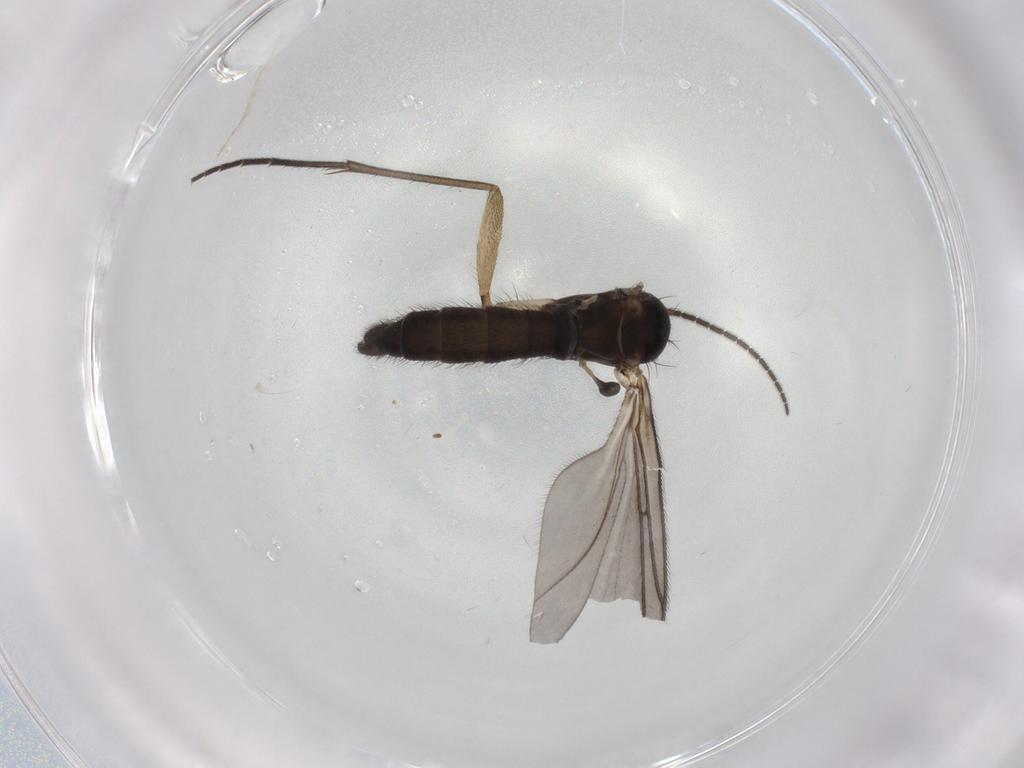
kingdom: Animalia
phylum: Arthropoda
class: Insecta
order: Diptera
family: Sciaridae
